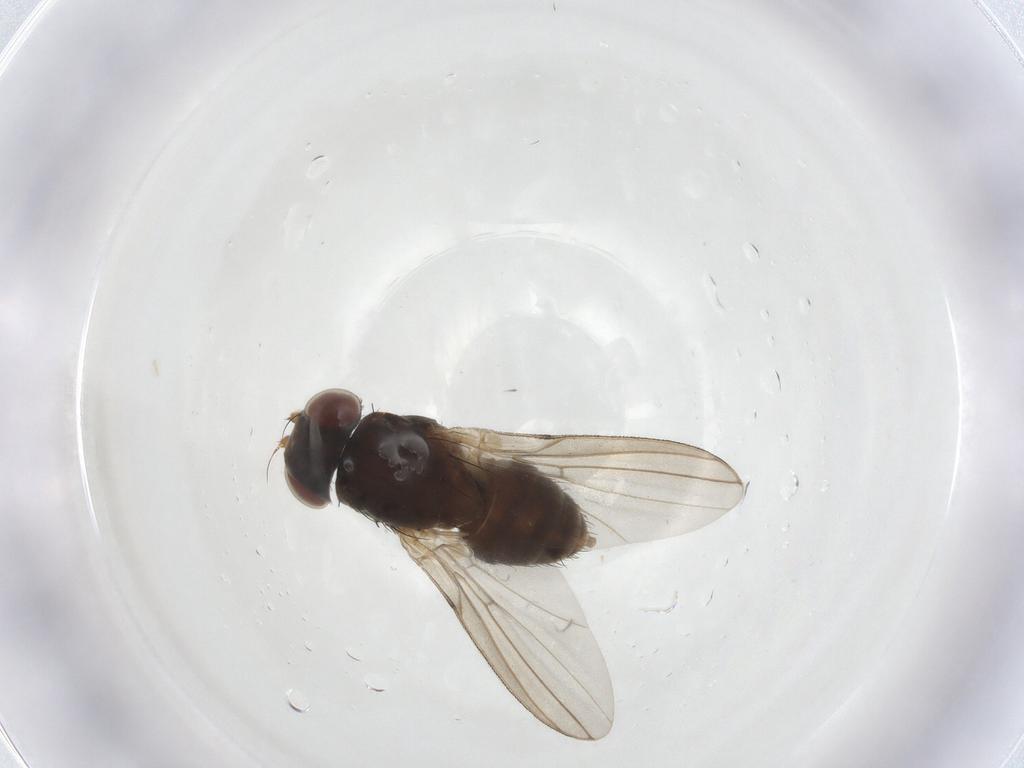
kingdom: Animalia
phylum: Arthropoda
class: Insecta
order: Diptera
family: Odiniidae
